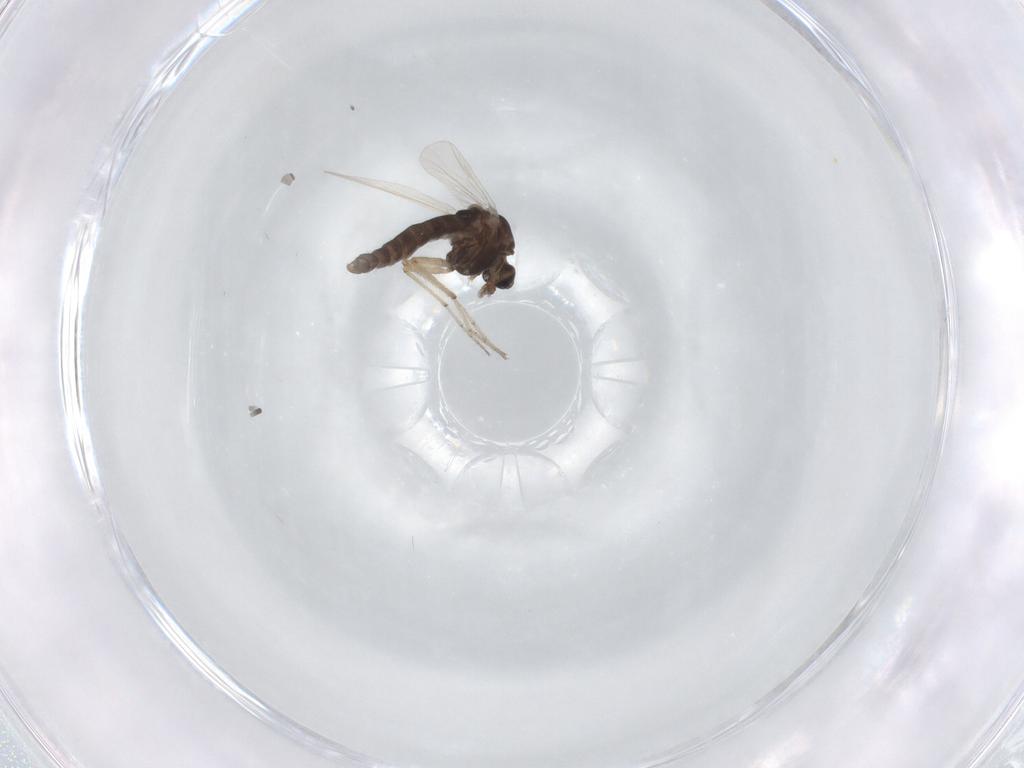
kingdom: Animalia
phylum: Arthropoda
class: Insecta
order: Diptera
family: Chironomidae
